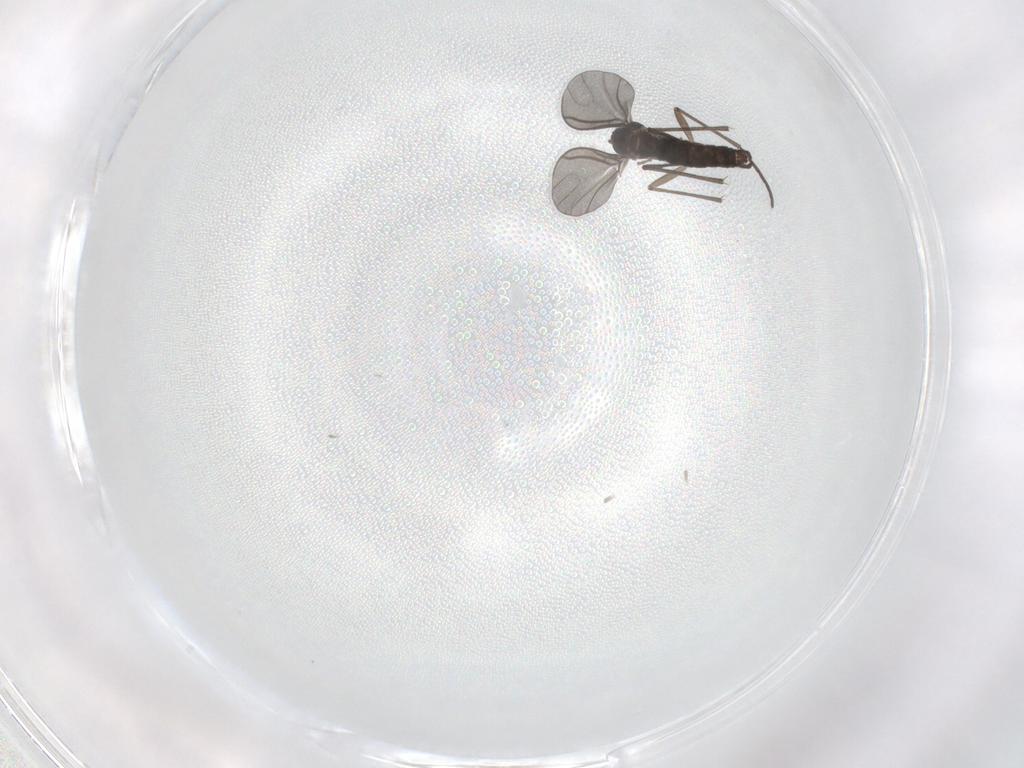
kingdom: Animalia
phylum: Arthropoda
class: Insecta
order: Diptera
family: Sciaridae
